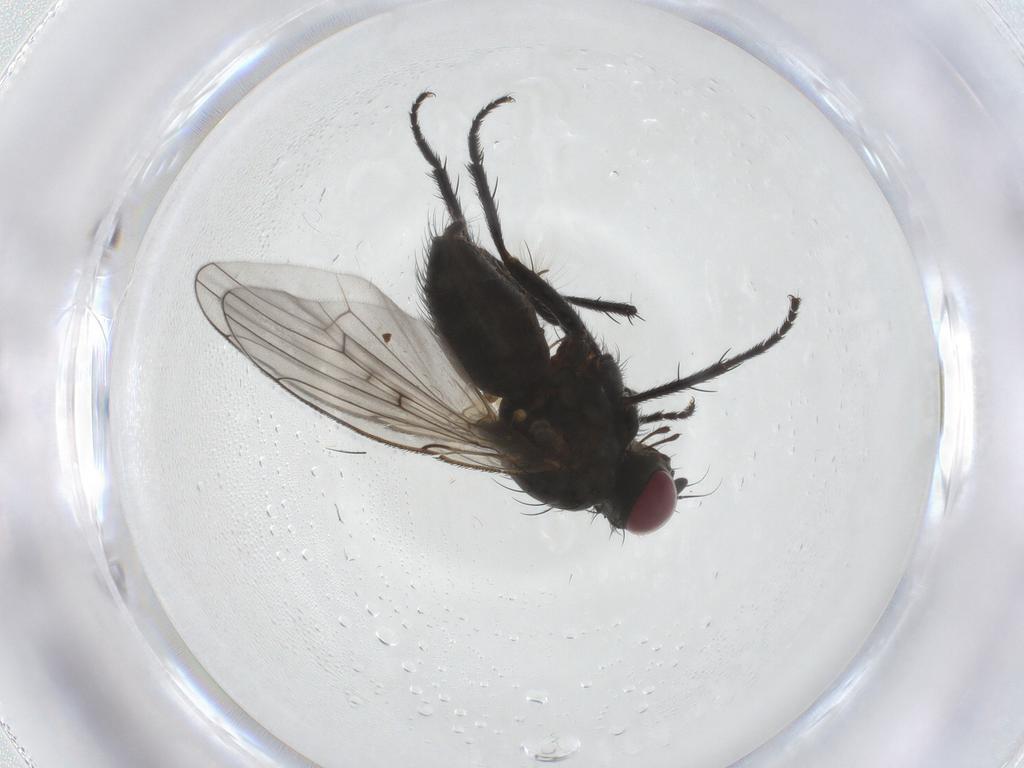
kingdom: Animalia
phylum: Arthropoda
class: Insecta
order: Diptera
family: Muscidae
